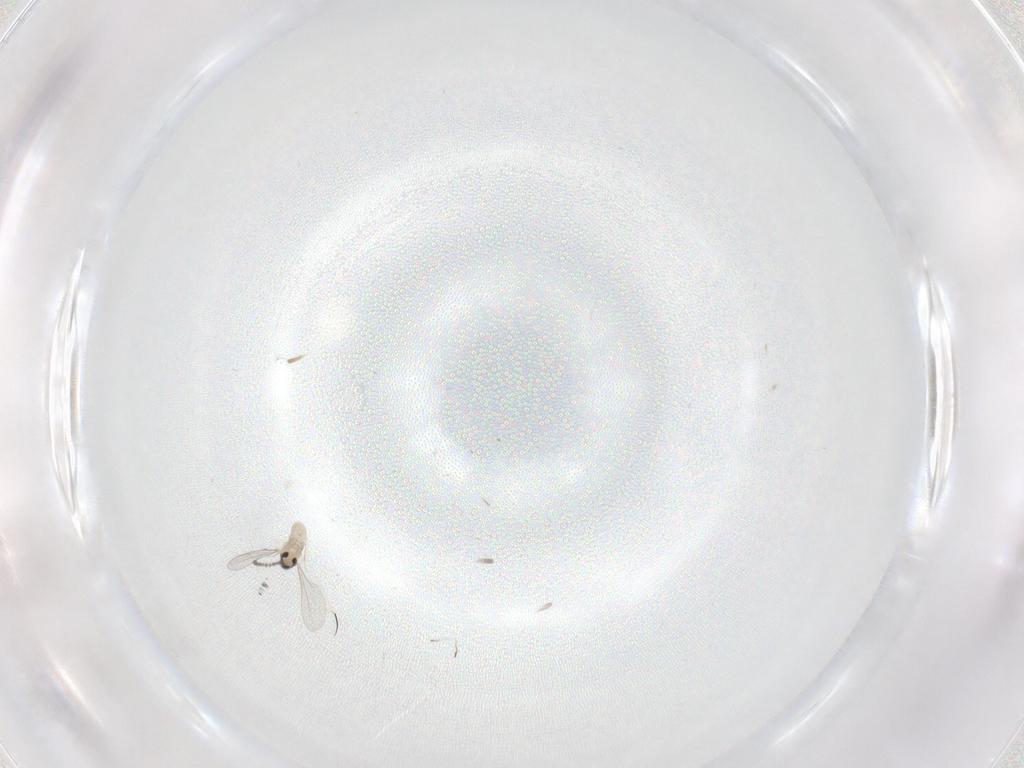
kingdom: Animalia
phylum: Arthropoda
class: Insecta
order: Diptera
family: Cecidomyiidae
